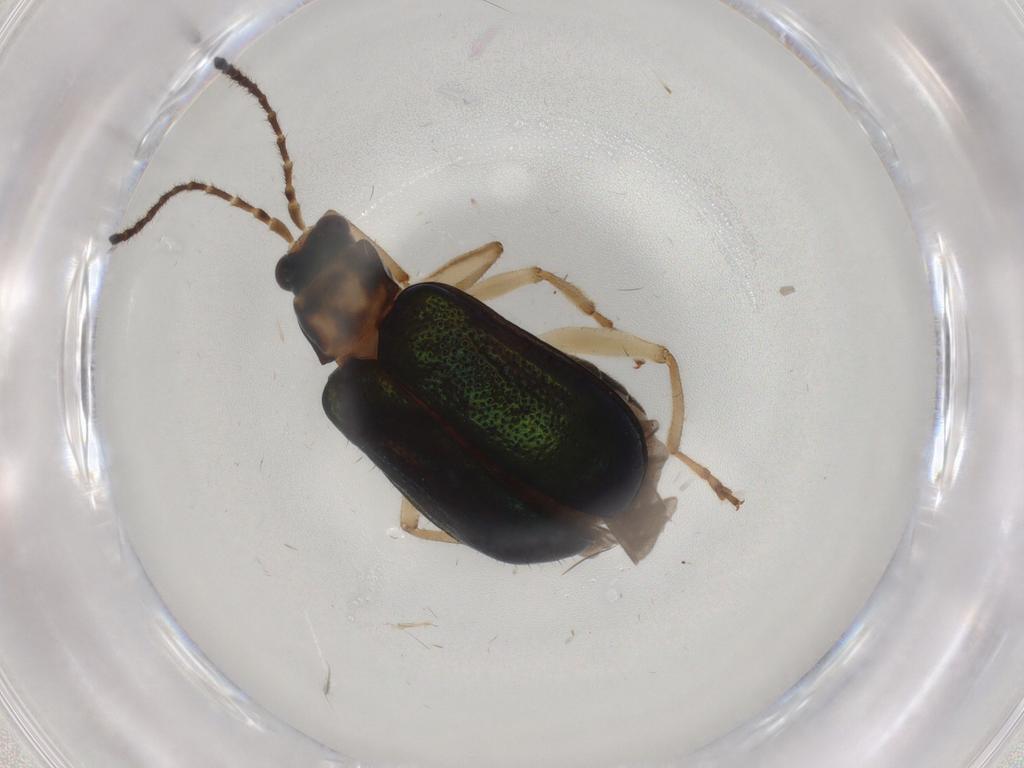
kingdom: Animalia
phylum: Arthropoda
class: Insecta
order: Coleoptera
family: Chrysomelidae
